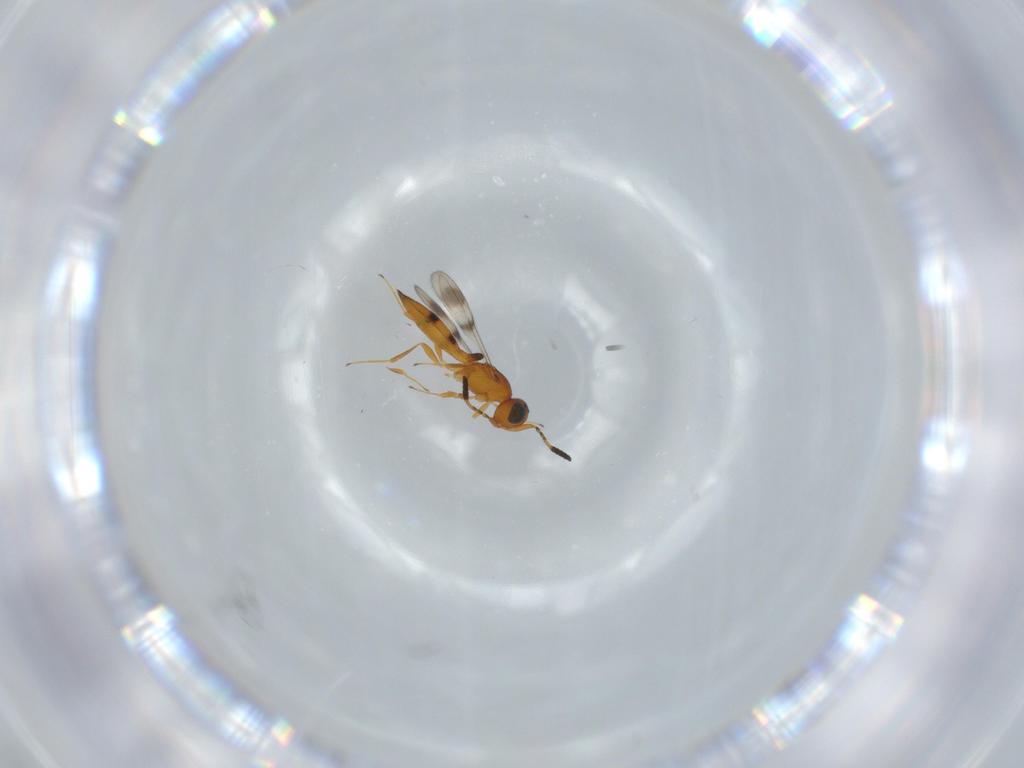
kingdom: Animalia
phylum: Arthropoda
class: Insecta
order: Hymenoptera
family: Scelionidae
